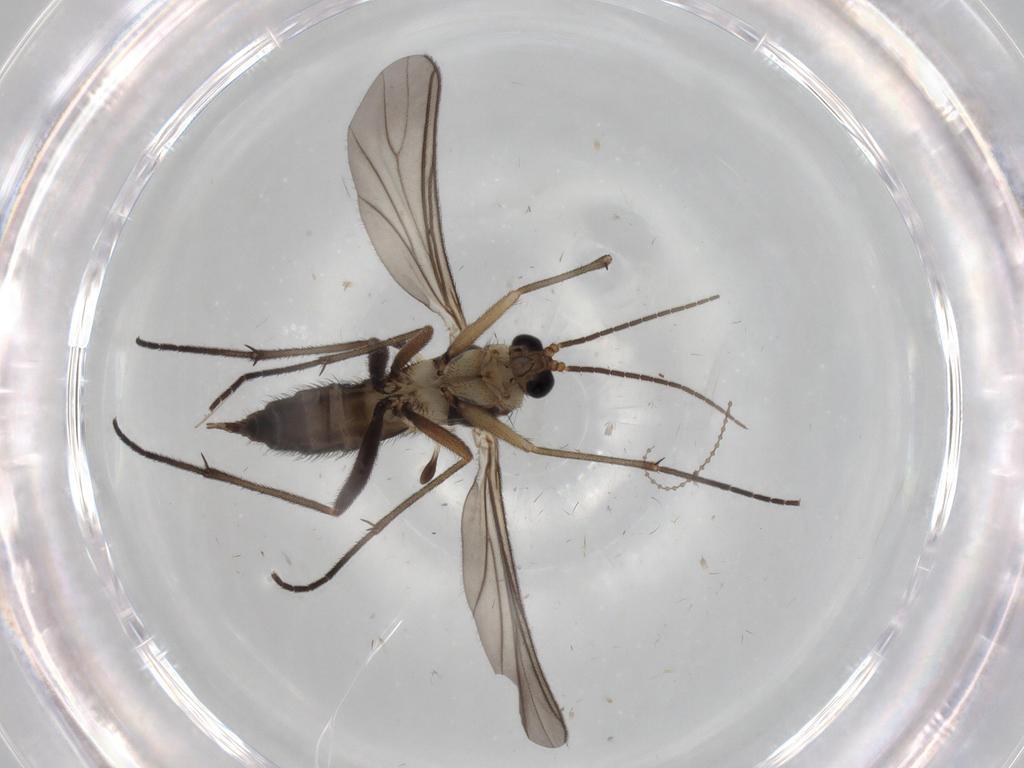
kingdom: Animalia
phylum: Arthropoda
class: Insecta
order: Diptera
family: Sciaridae
